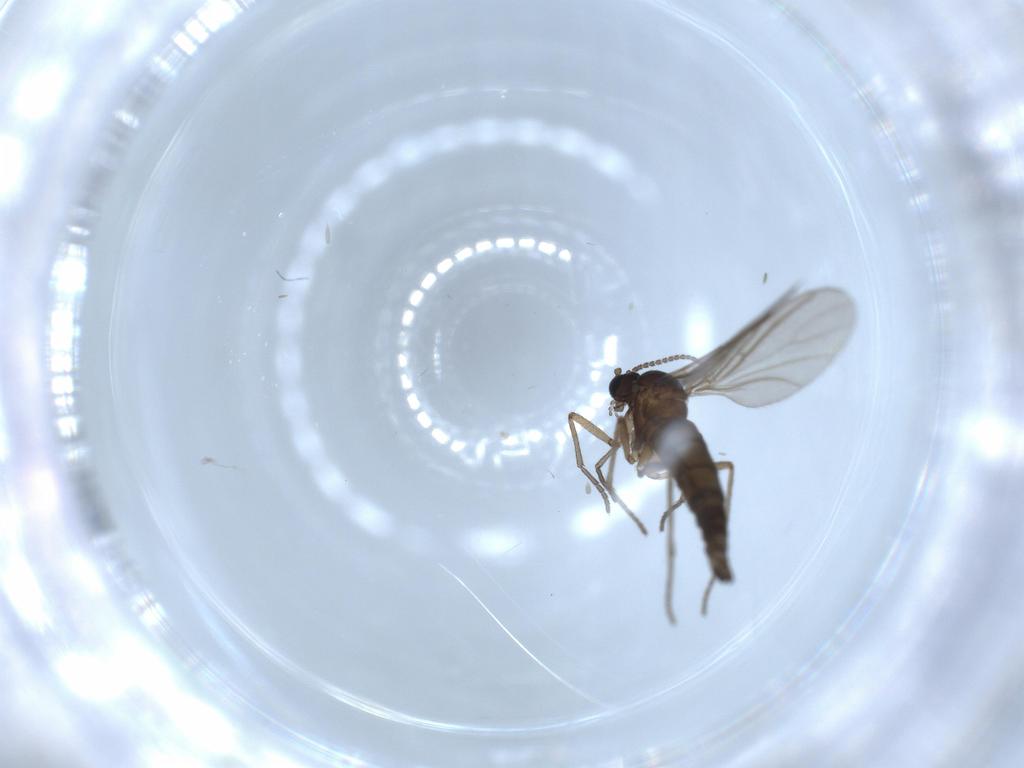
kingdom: Animalia
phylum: Arthropoda
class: Insecta
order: Diptera
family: Sciaridae
